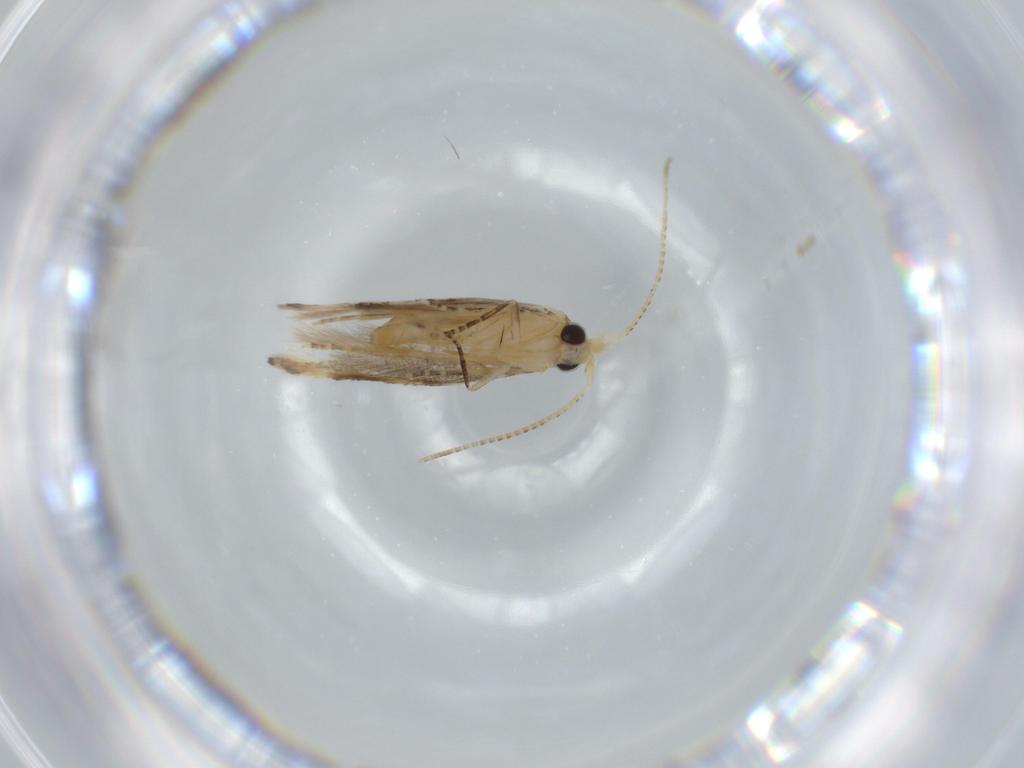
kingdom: Animalia
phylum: Arthropoda
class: Insecta
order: Lepidoptera
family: Bucculatricidae
